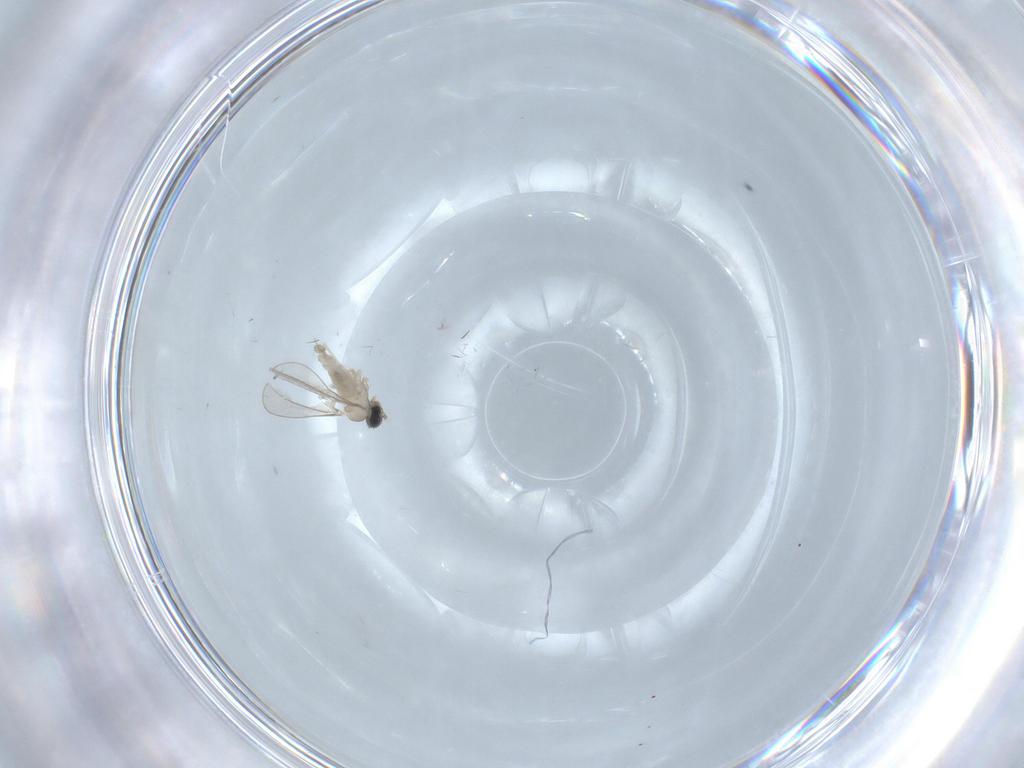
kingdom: Animalia
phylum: Arthropoda
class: Insecta
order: Diptera
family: Cecidomyiidae
